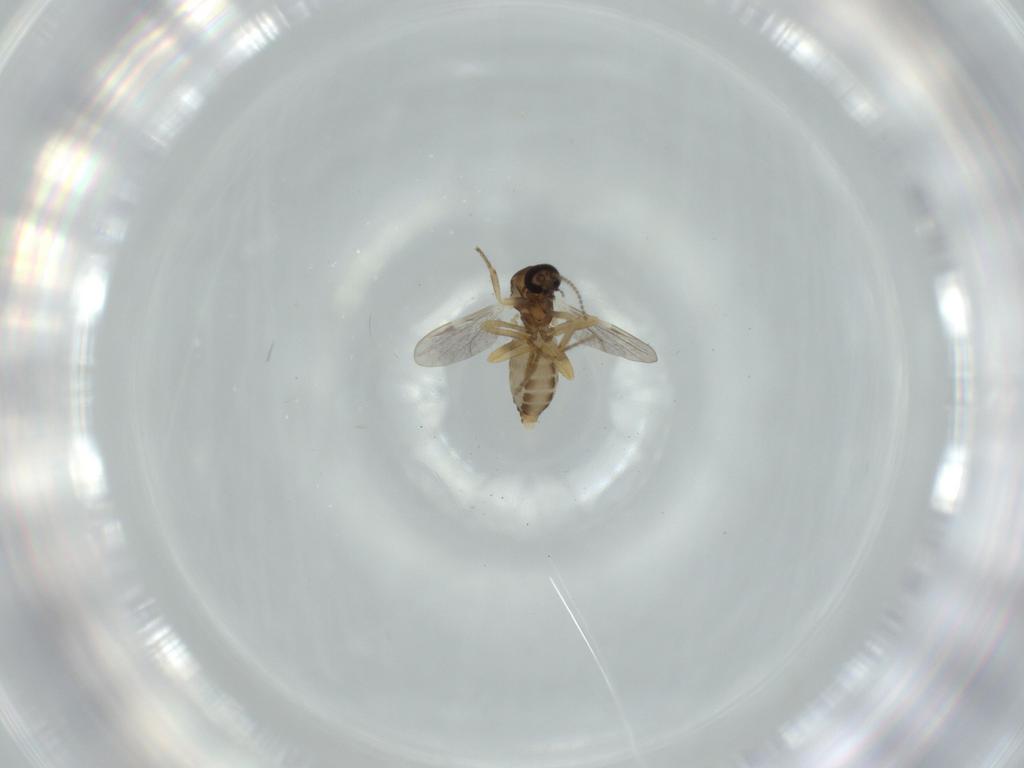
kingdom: Animalia
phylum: Arthropoda
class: Insecta
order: Diptera
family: Ceratopogonidae
